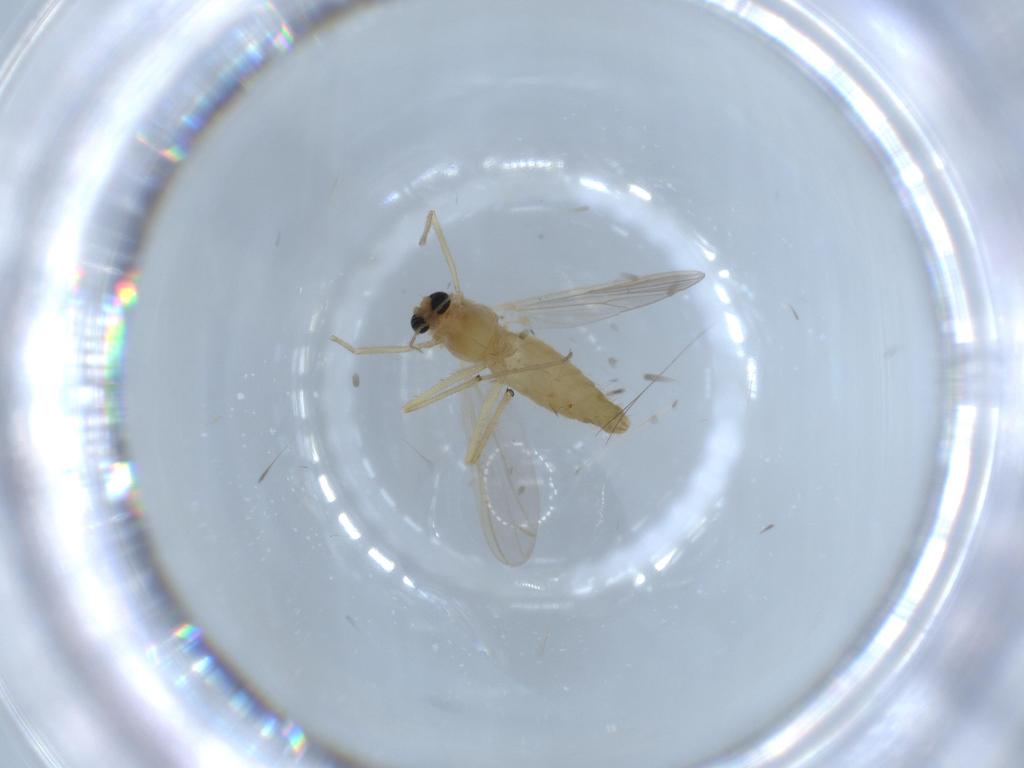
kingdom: Animalia
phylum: Arthropoda
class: Insecta
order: Diptera
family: Chironomidae
